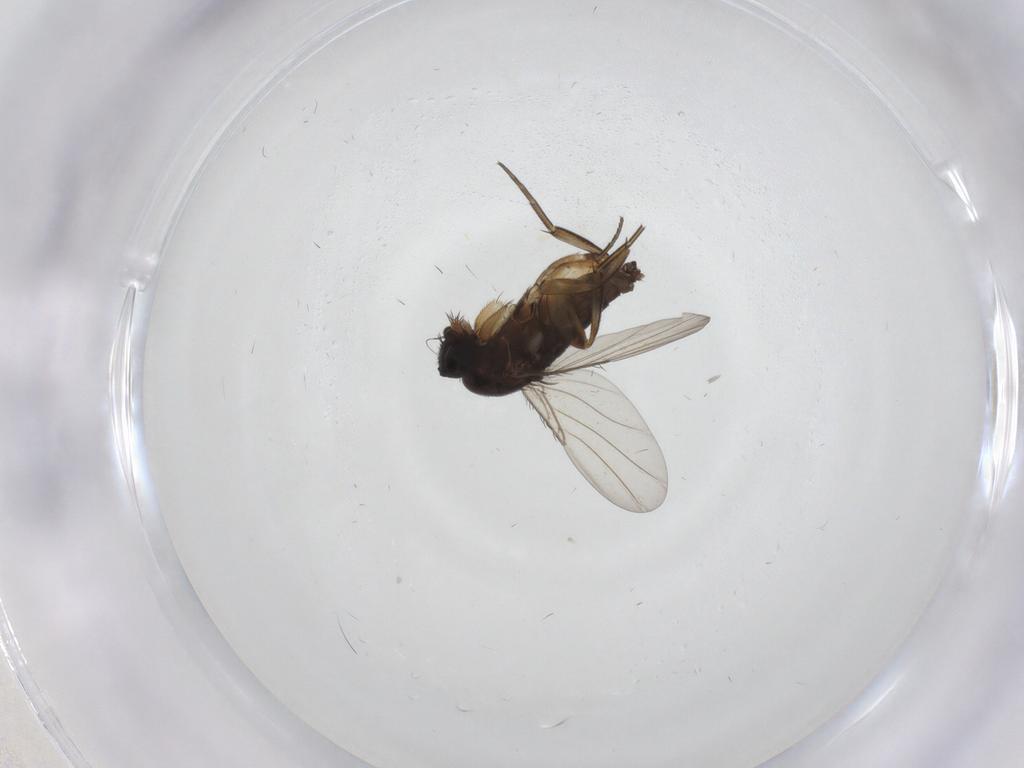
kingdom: Animalia
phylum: Arthropoda
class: Insecta
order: Diptera
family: Phoridae
